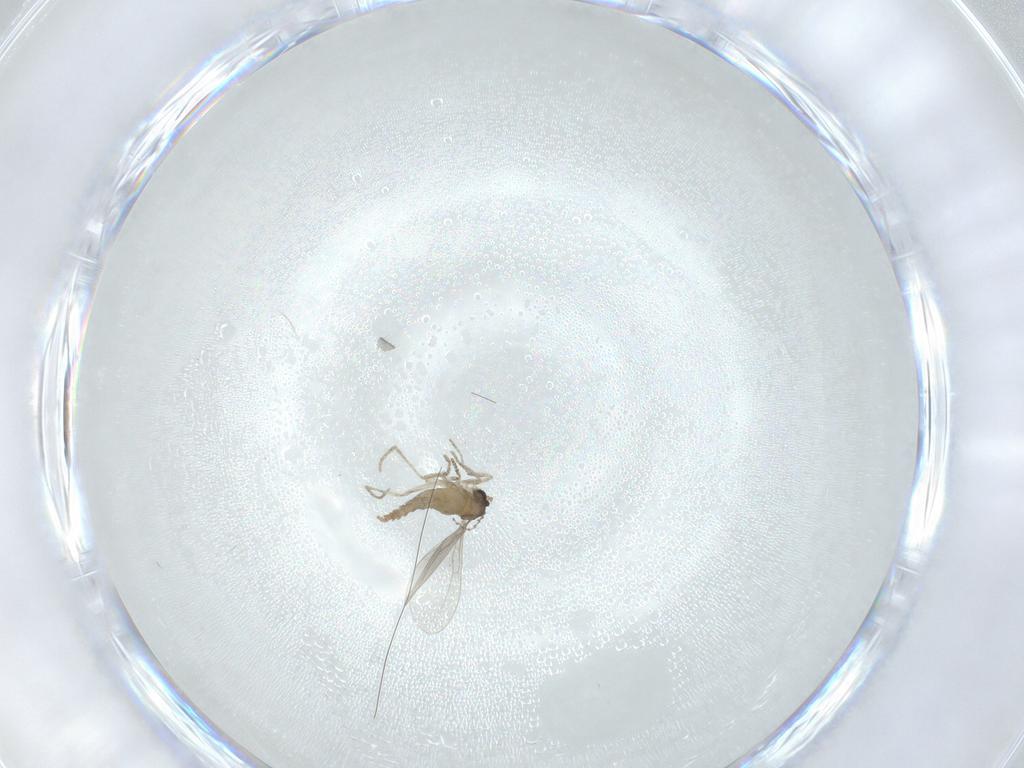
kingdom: Animalia
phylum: Arthropoda
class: Insecta
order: Diptera
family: Cecidomyiidae
